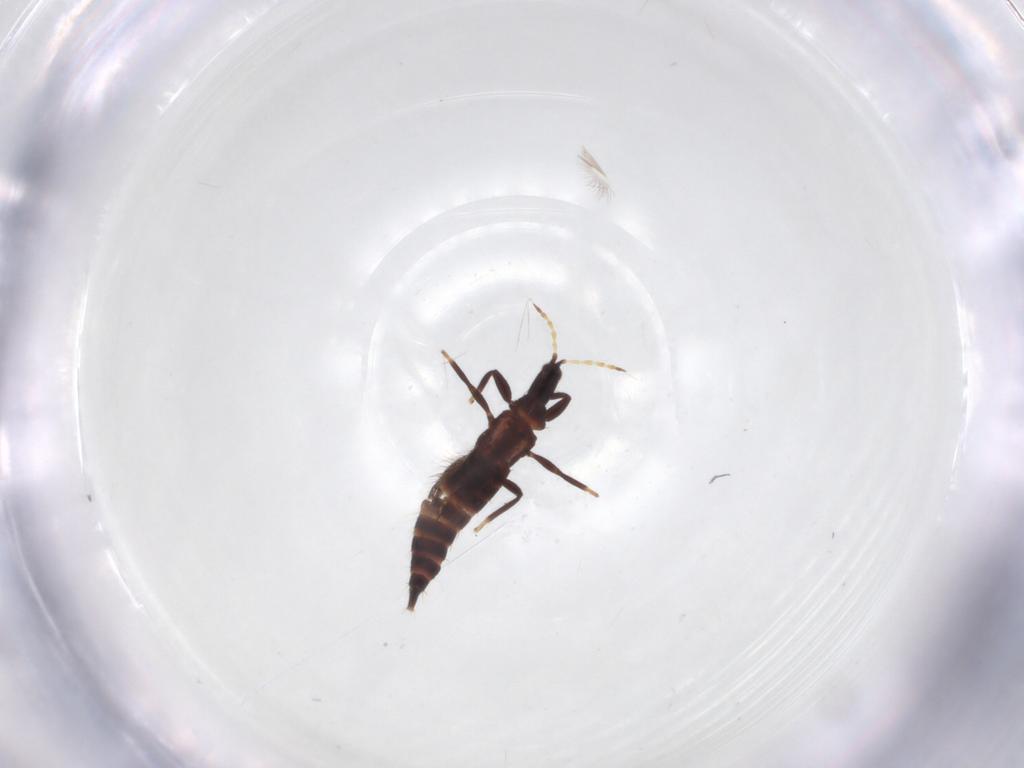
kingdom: Animalia
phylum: Arthropoda
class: Insecta
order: Thysanoptera
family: Phlaeothripidae
